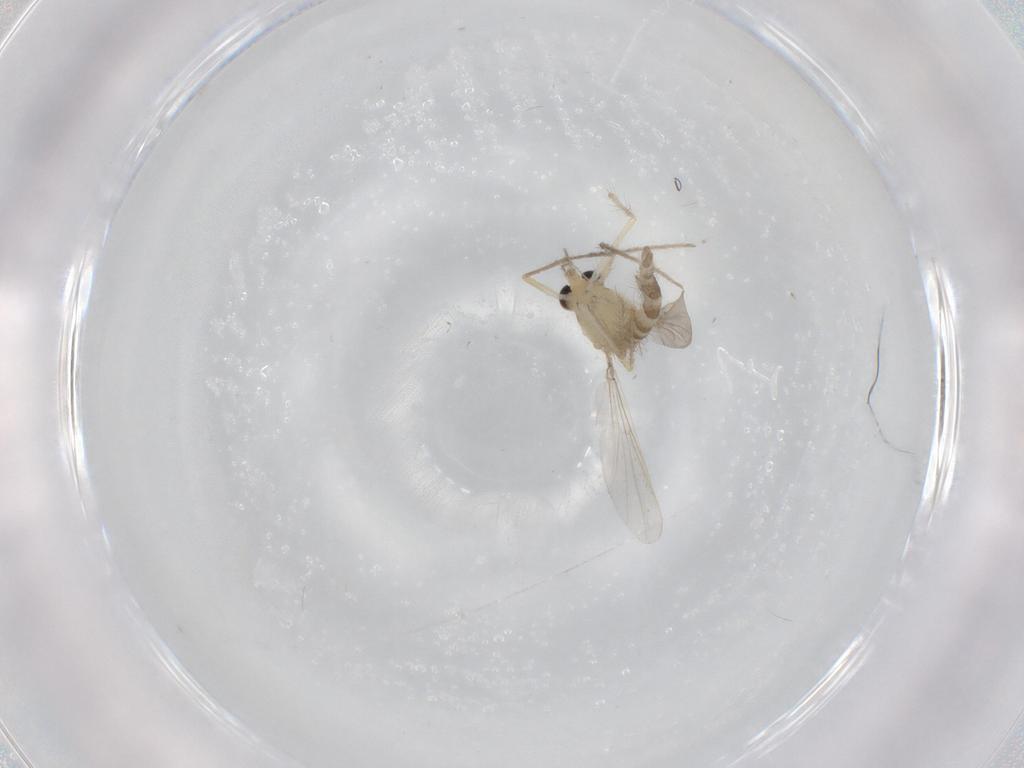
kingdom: Animalia
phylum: Arthropoda
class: Insecta
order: Diptera
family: Chironomidae
